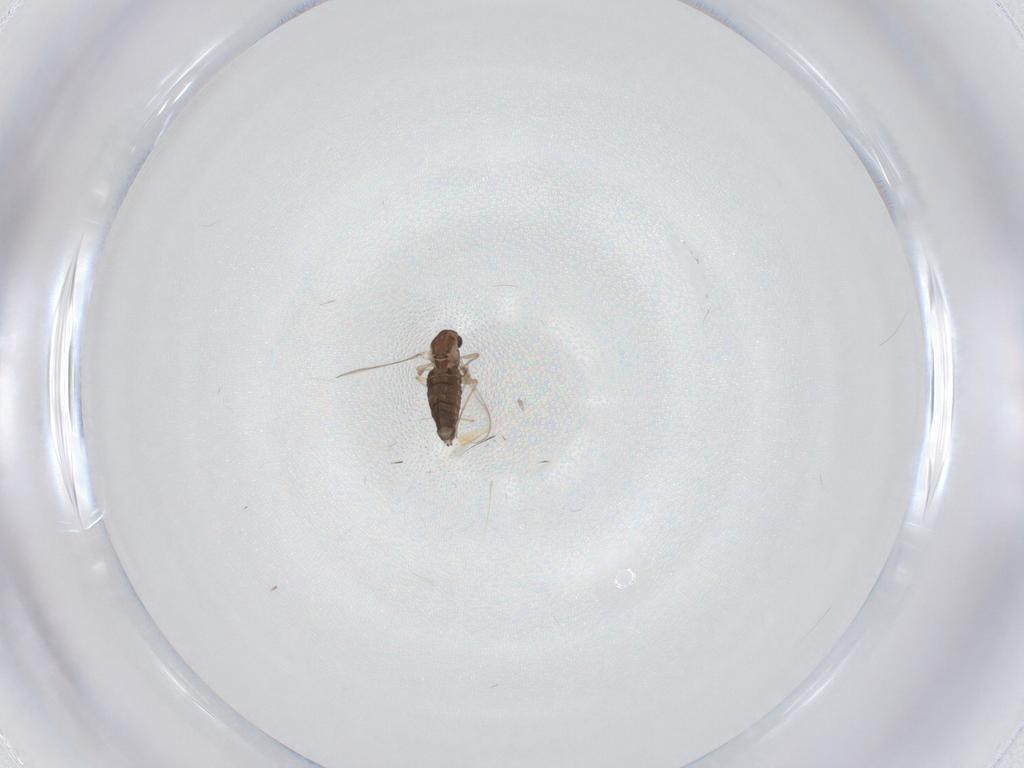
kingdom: Animalia
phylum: Arthropoda
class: Insecta
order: Diptera
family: Chironomidae
